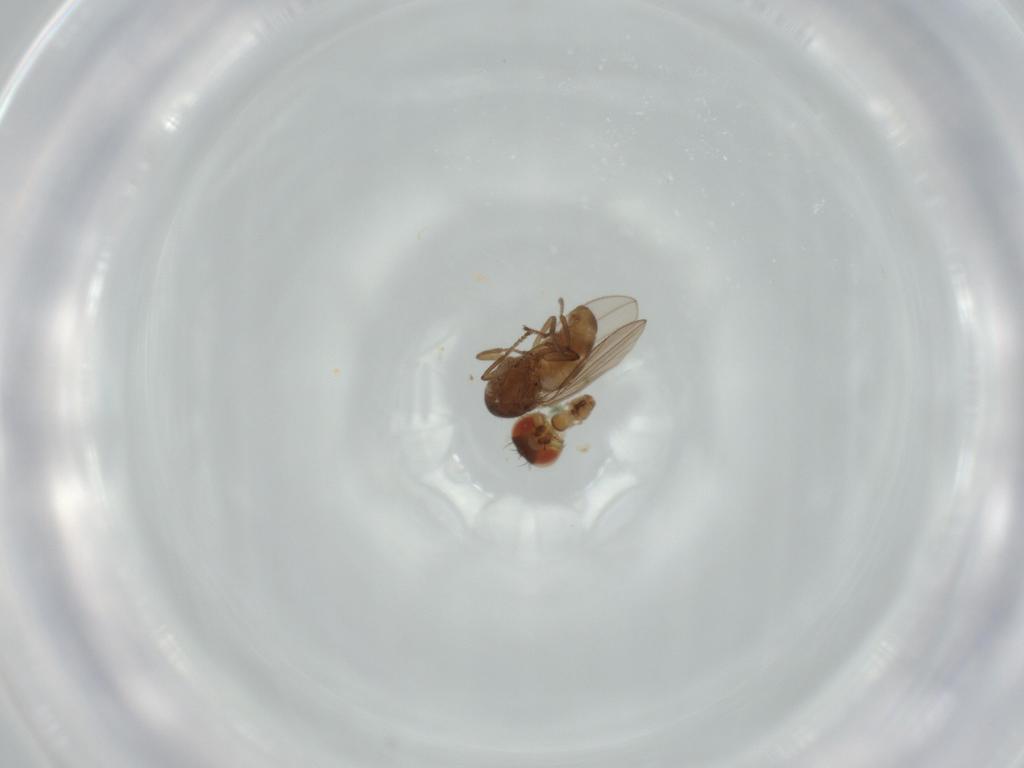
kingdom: Animalia
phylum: Arthropoda
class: Insecta
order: Diptera
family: Ephydridae
